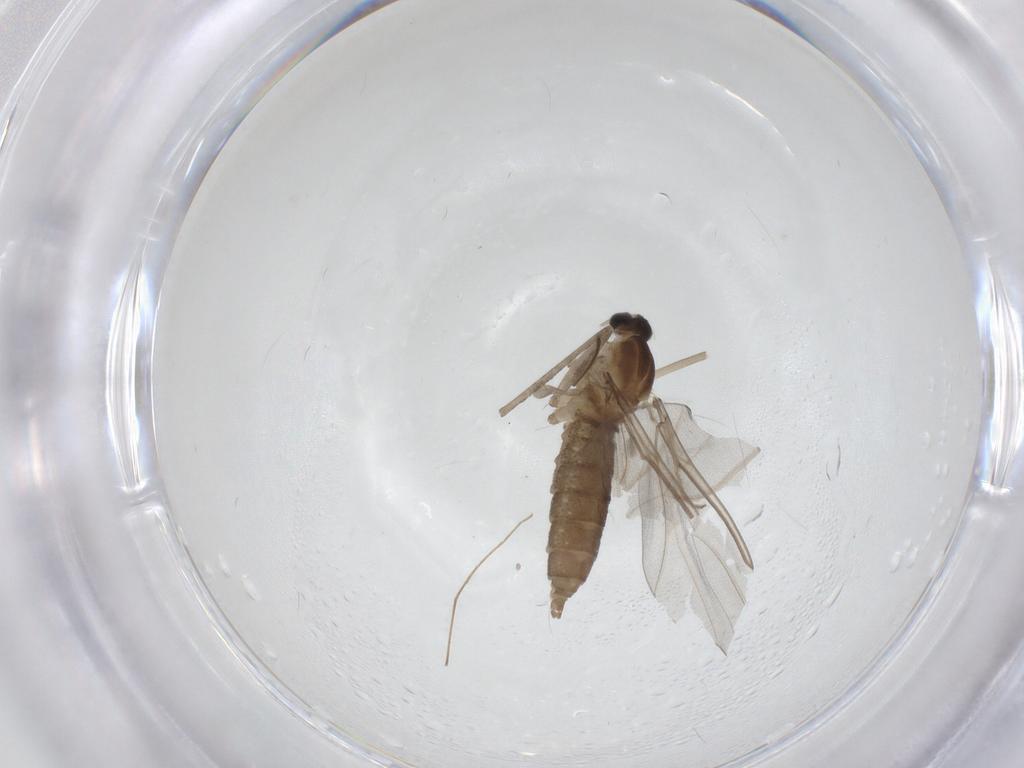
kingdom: Animalia
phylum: Arthropoda
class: Insecta
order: Diptera
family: Cecidomyiidae
